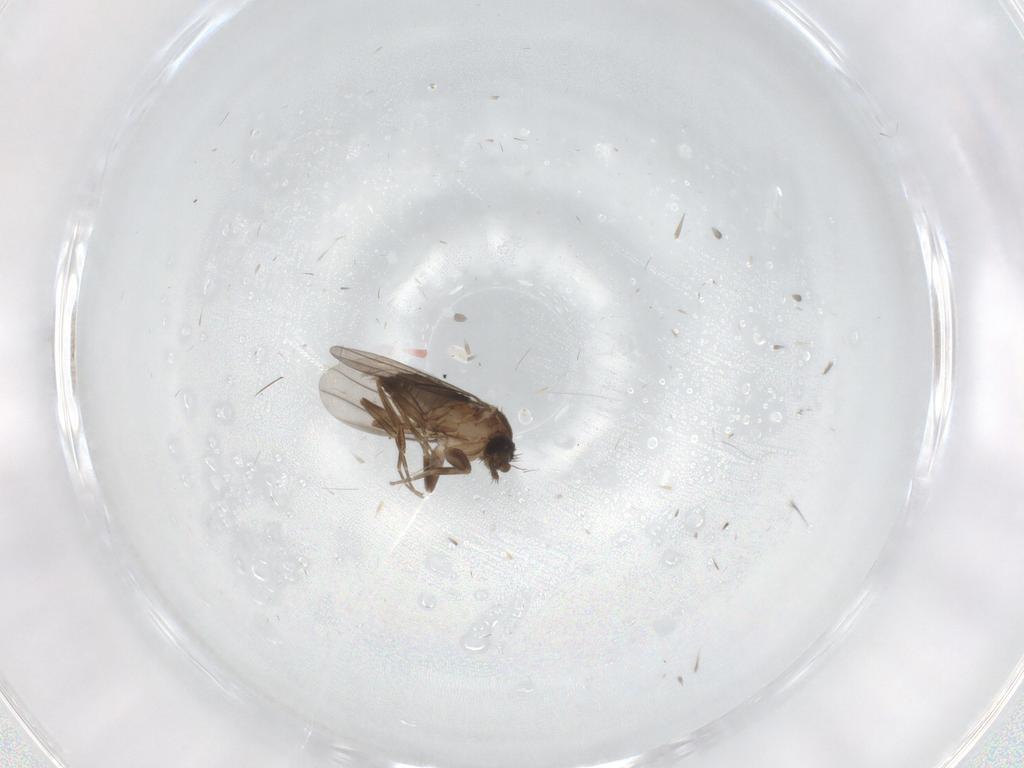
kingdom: Animalia
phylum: Arthropoda
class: Insecta
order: Diptera
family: Phoridae
